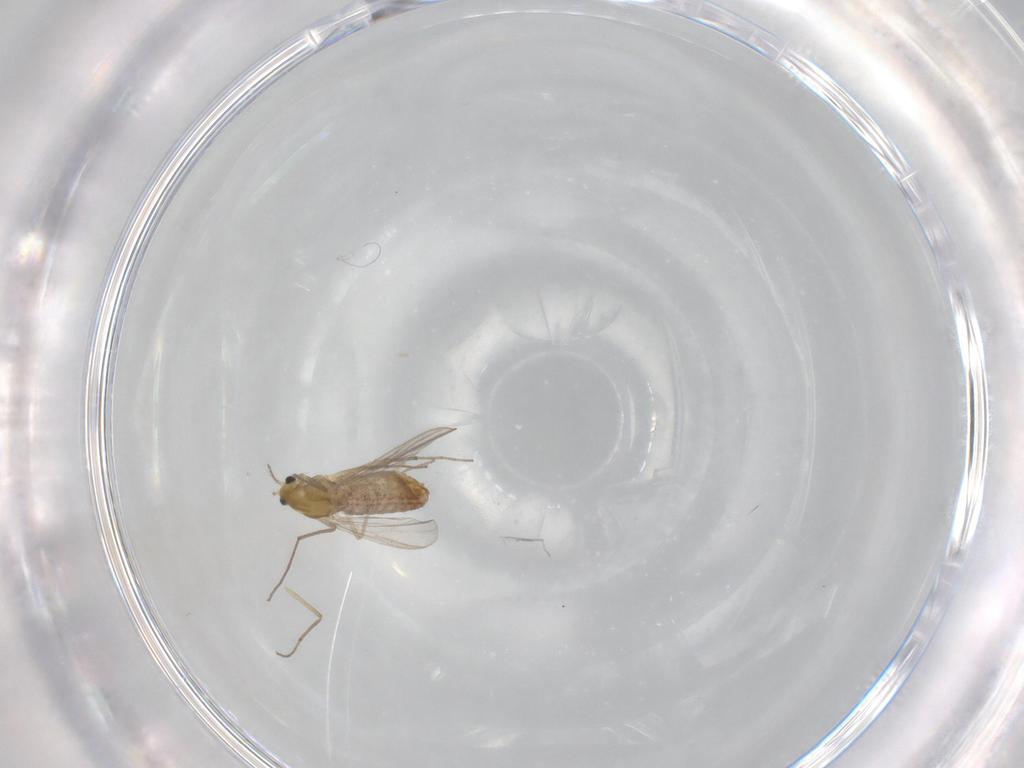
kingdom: Animalia
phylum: Arthropoda
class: Insecta
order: Diptera
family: Chironomidae
